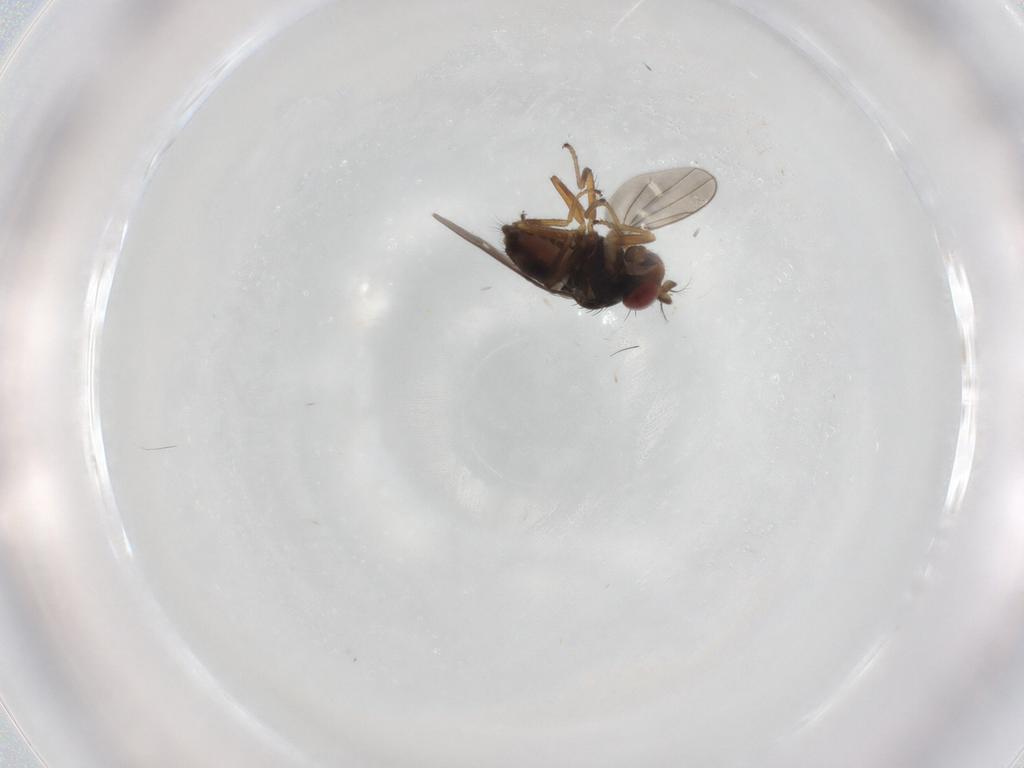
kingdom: Animalia
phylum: Arthropoda
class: Insecta
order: Diptera
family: Ephydridae
